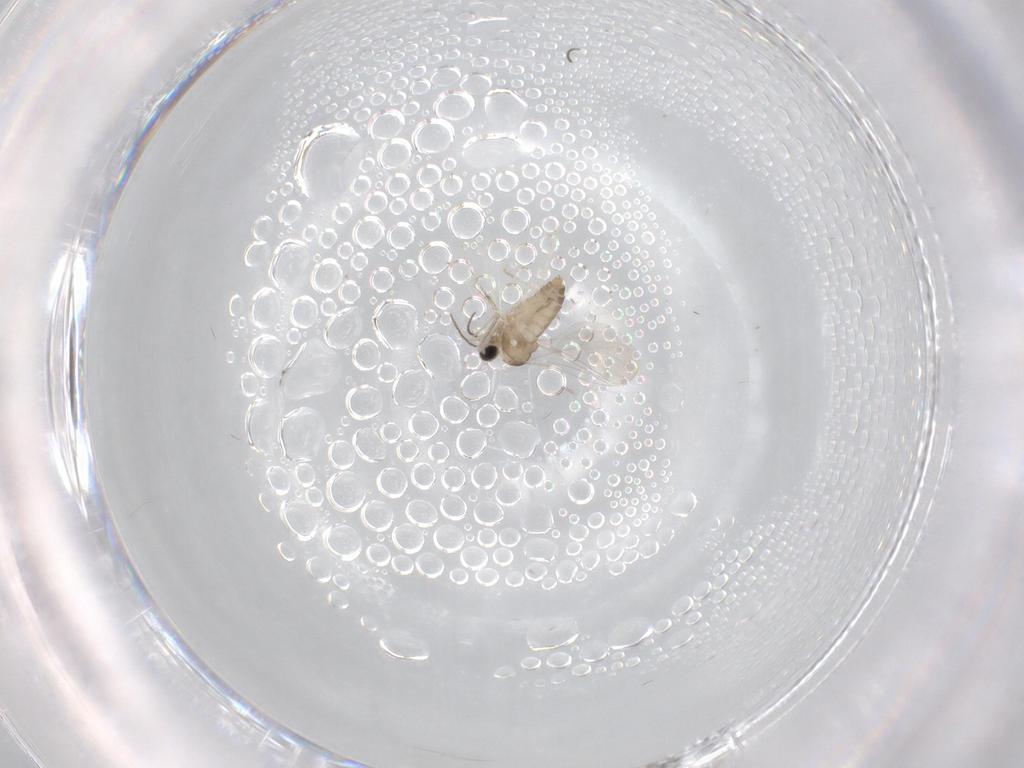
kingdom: Animalia
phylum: Arthropoda
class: Insecta
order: Diptera
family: Cecidomyiidae
